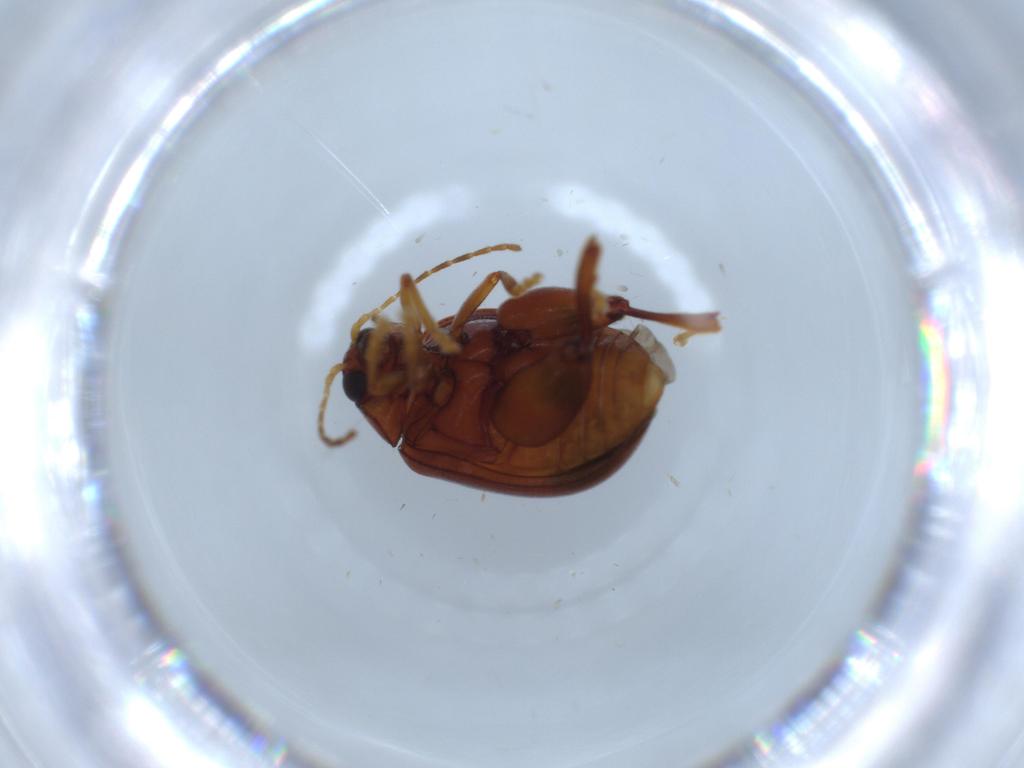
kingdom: Animalia
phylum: Arthropoda
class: Insecta
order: Coleoptera
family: Chrysomelidae
